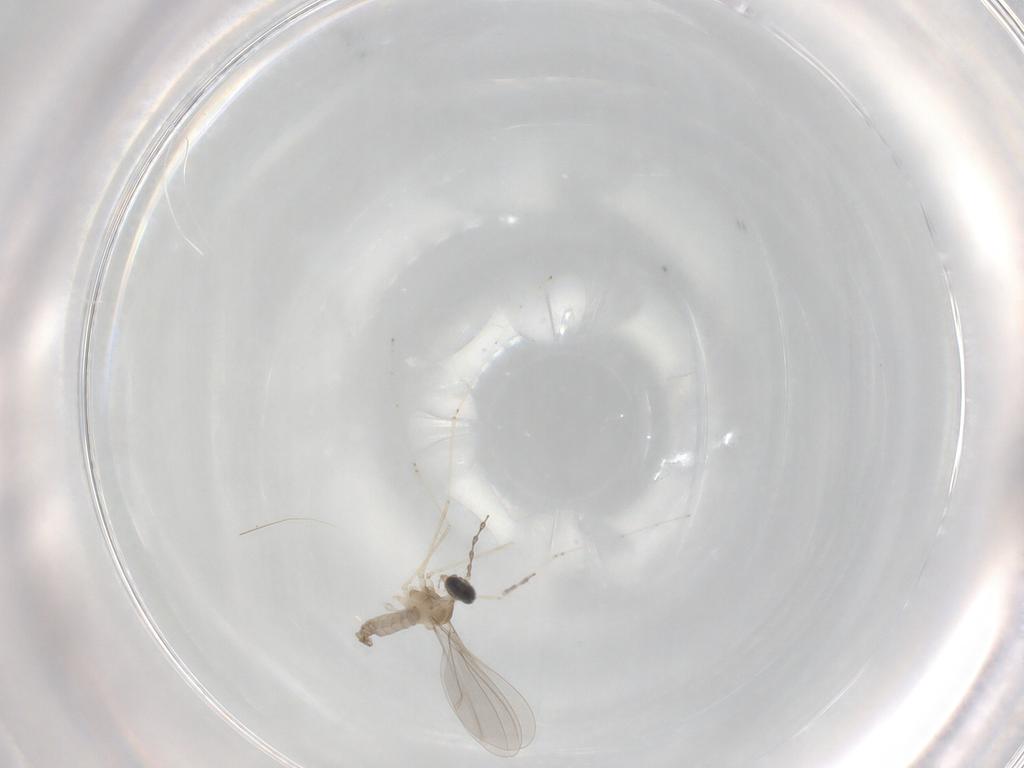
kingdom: Animalia
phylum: Arthropoda
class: Insecta
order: Diptera
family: Cecidomyiidae
